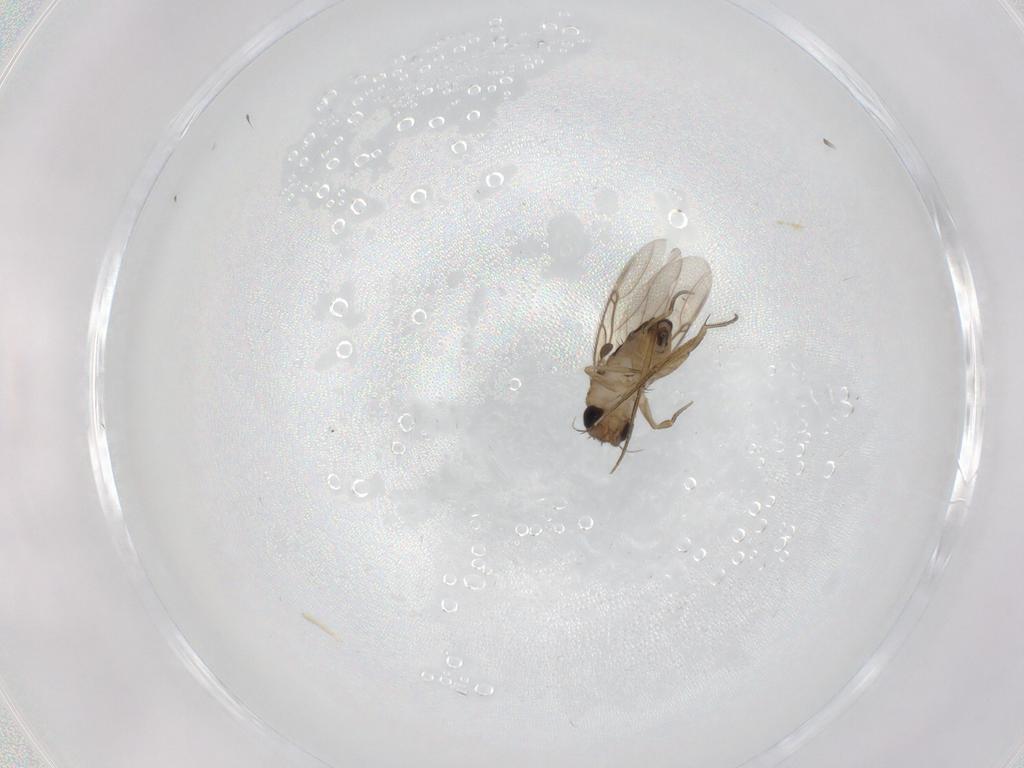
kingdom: Animalia
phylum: Arthropoda
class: Insecta
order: Diptera
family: Phoridae
